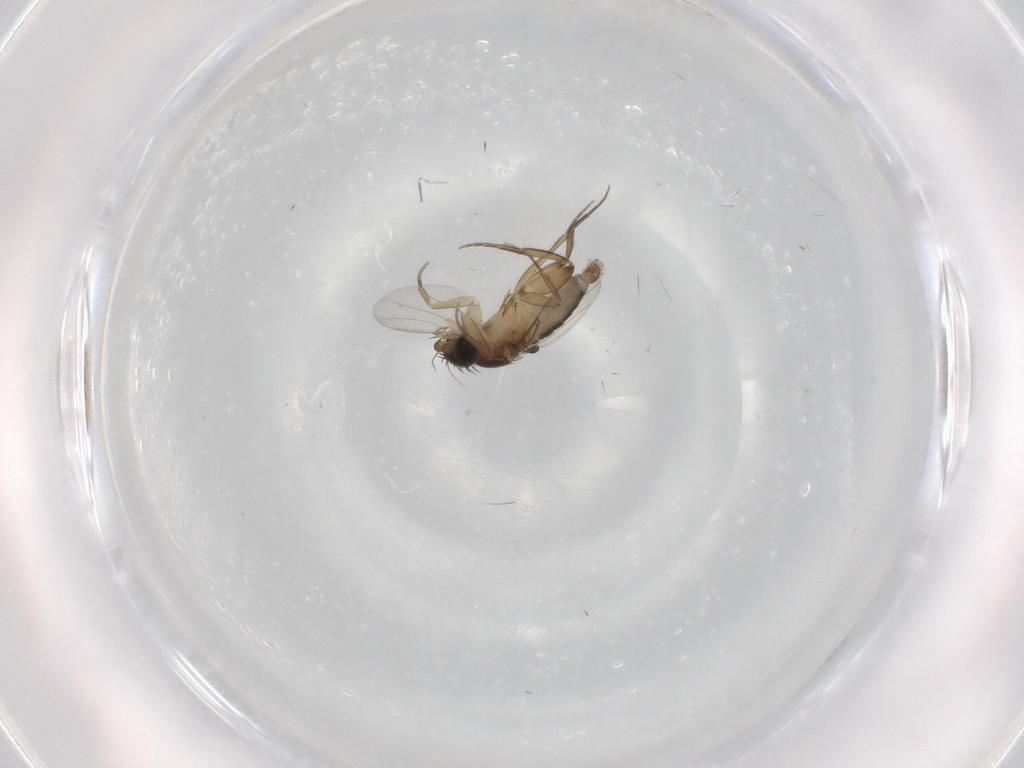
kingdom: Animalia
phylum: Arthropoda
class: Insecta
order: Diptera
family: Phoridae
